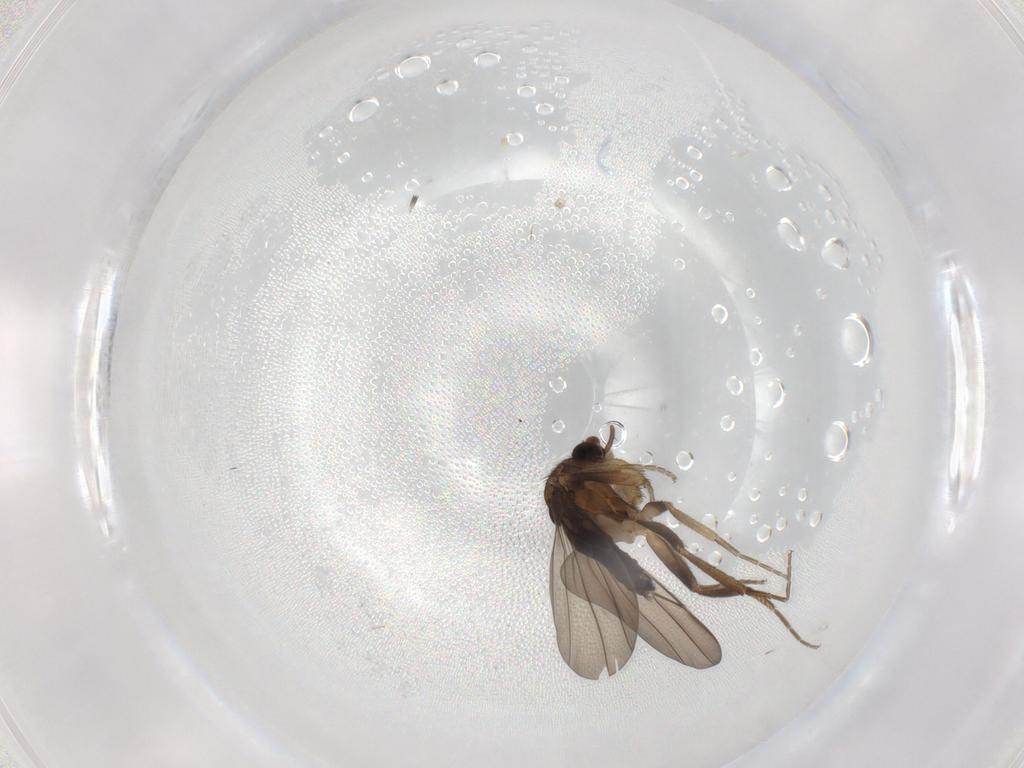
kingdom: Animalia
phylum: Arthropoda
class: Insecta
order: Diptera
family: Phoridae
